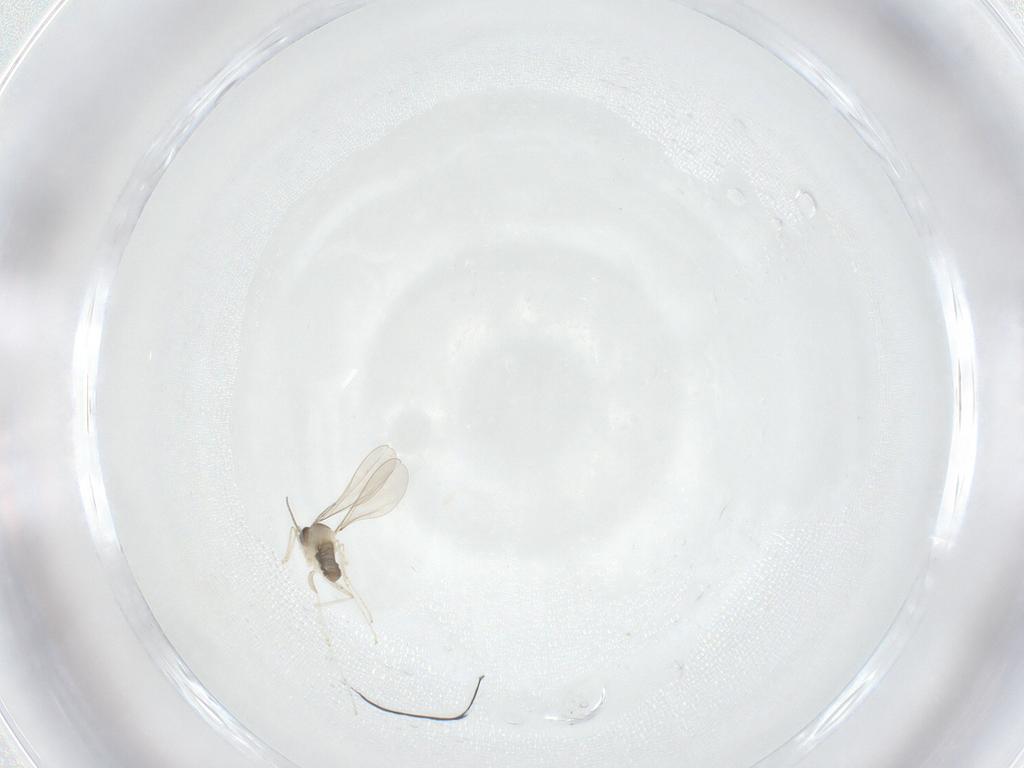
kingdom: Animalia
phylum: Arthropoda
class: Insecta
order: Diptera
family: Cecidomyiidae
